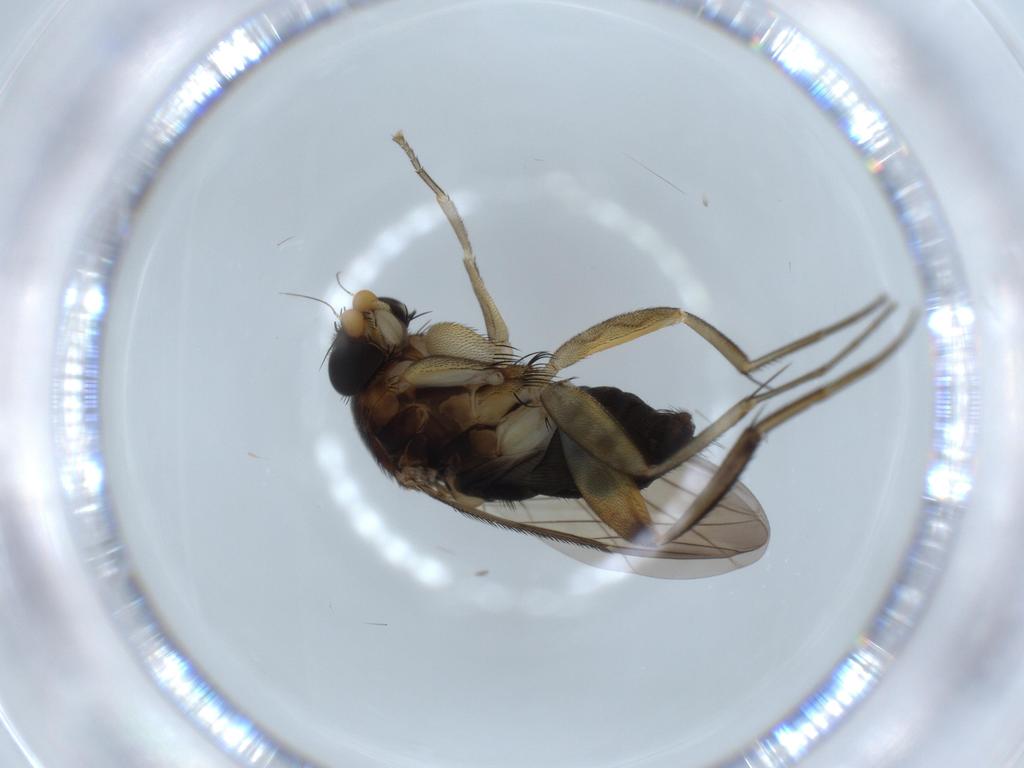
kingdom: Animalia
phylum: Arthropoda
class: Insecta
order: Diptera
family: Phoridae
